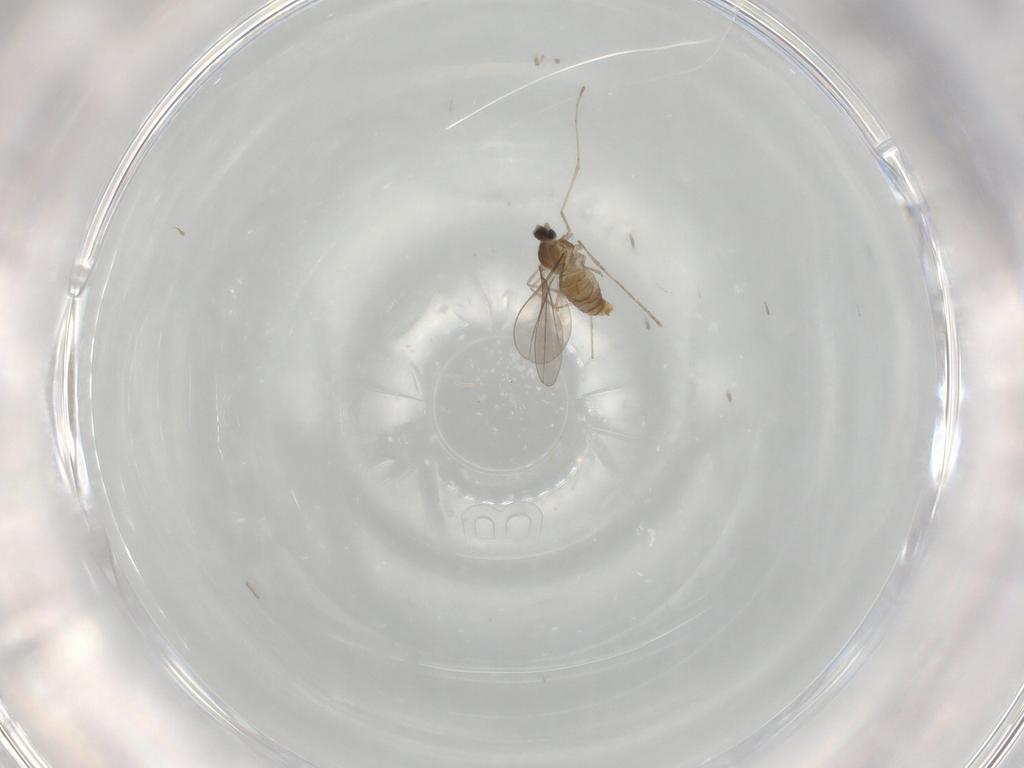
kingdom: Animalia
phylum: Arthropoda
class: Insecta
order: Diptera
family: Cecidomyiidae
